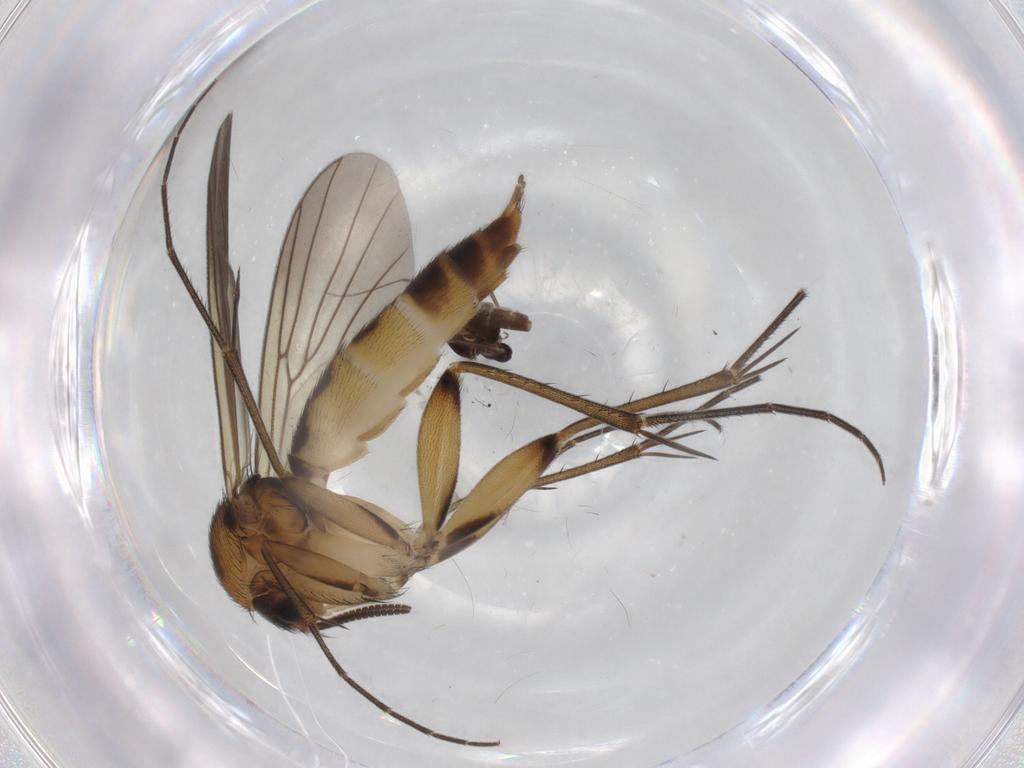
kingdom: Animalia
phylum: Arthropoda
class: Insecta
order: Diptera
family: Mycetophilidae
